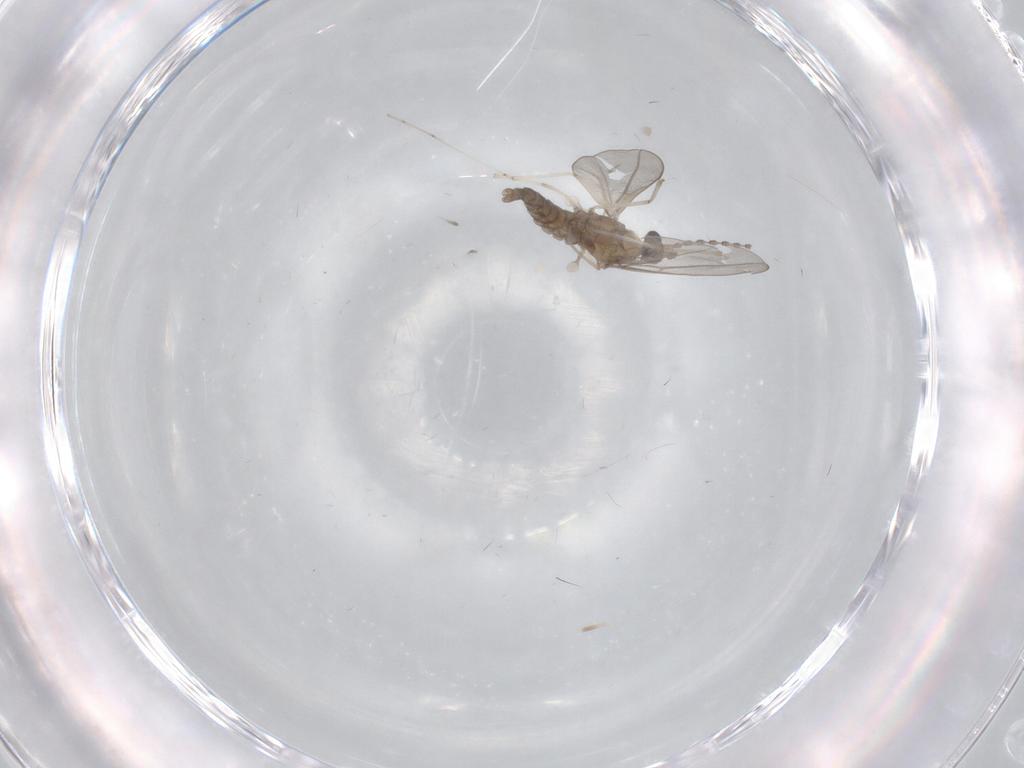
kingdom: Animalia
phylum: Arthropoda
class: Insecta
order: Diptera
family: Cecidomyiidae
